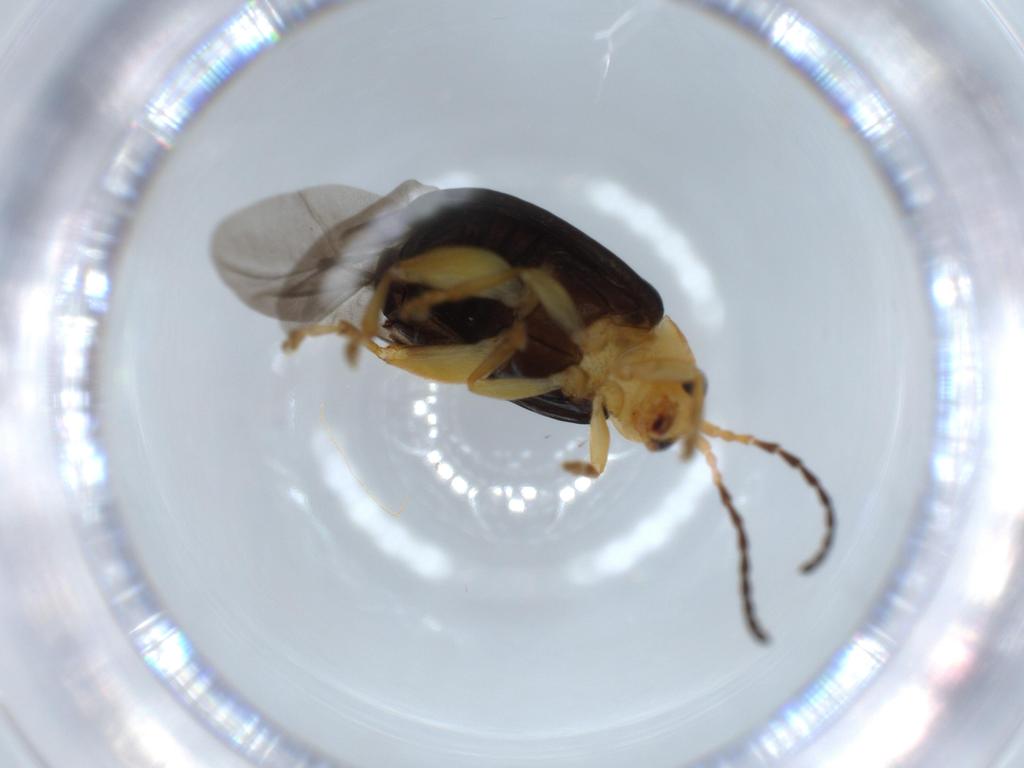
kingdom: Animalia
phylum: Arthropoda
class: Insecta
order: Coleoptera
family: Chrysomelidae
